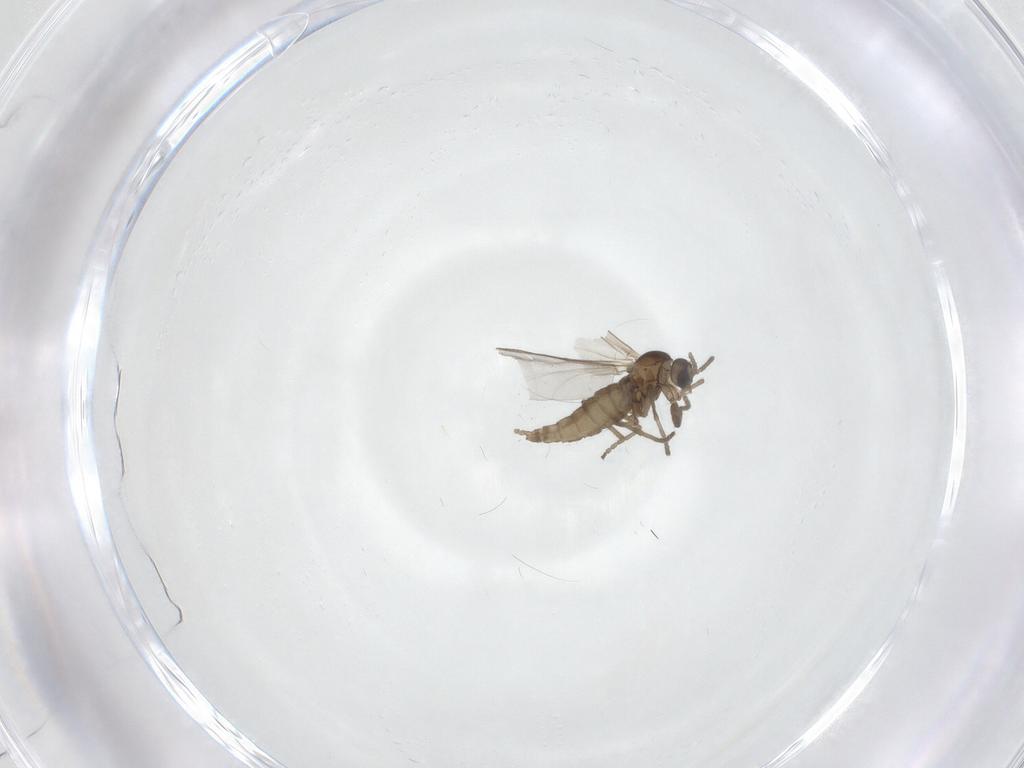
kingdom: Animalia
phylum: Arthropoda
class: Insecta
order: Diptera
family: Cecidomyiidae
